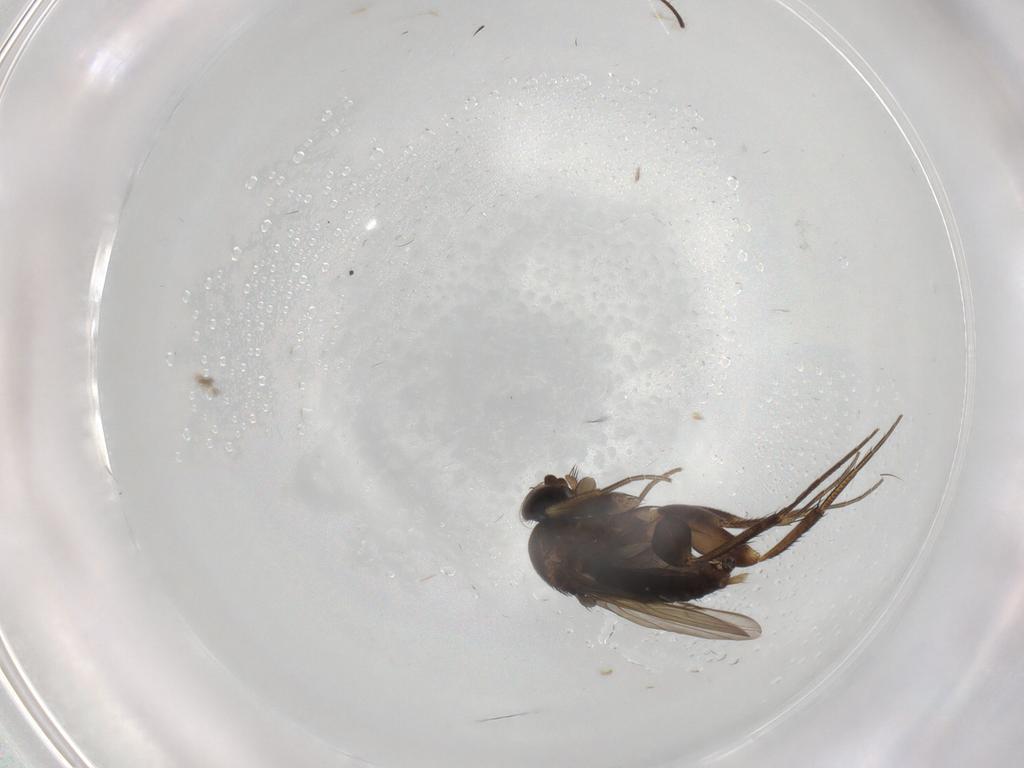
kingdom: Animalia
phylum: Arthropoda
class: Insecta
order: Diptera
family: Phoridae
